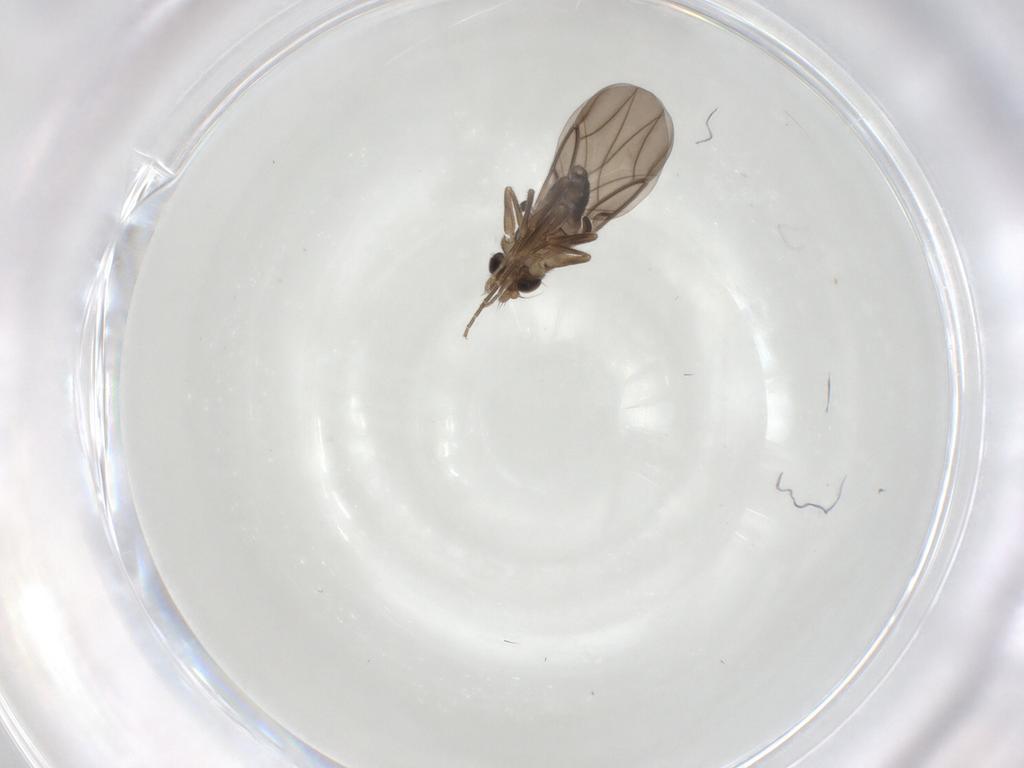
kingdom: Animalia
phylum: Arthropoda
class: Insecta
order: Diptera
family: Phoridae
